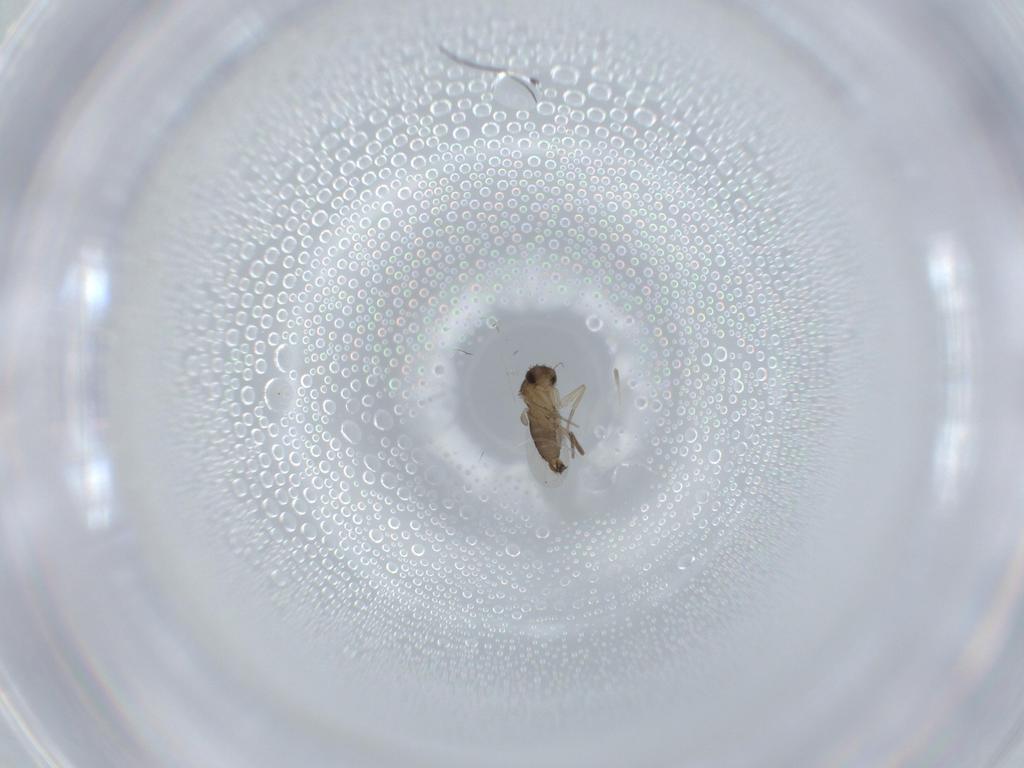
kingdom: Animalia
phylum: Arthropoda
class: Insecta
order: Diptera
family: Phoridae
